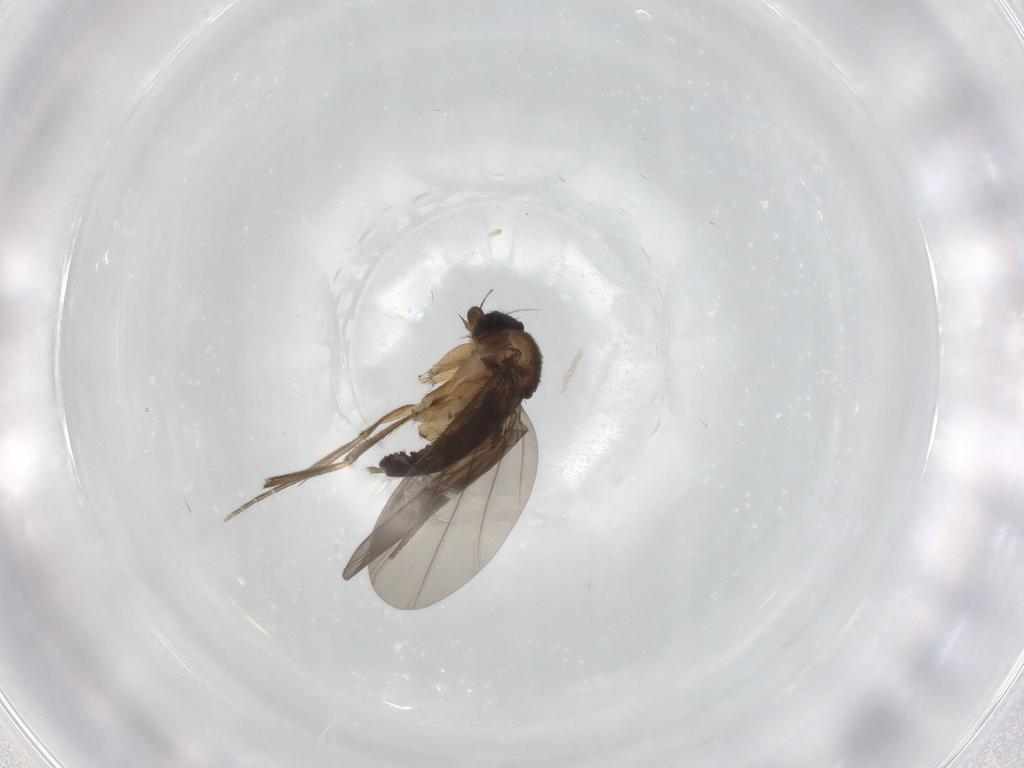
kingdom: Animalia
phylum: Arthropoda
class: Insecta
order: Diptera
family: Phoridae
